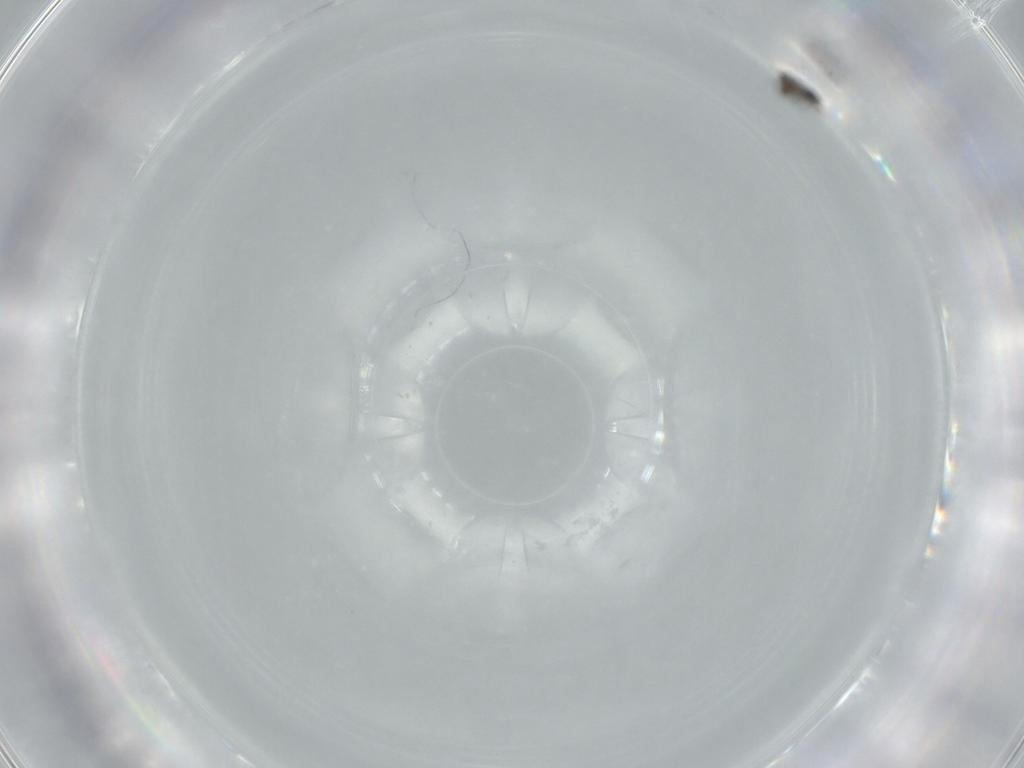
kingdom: Animalia
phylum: Arthropoda
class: Insecta
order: Diptera
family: Cecidomyiidae
